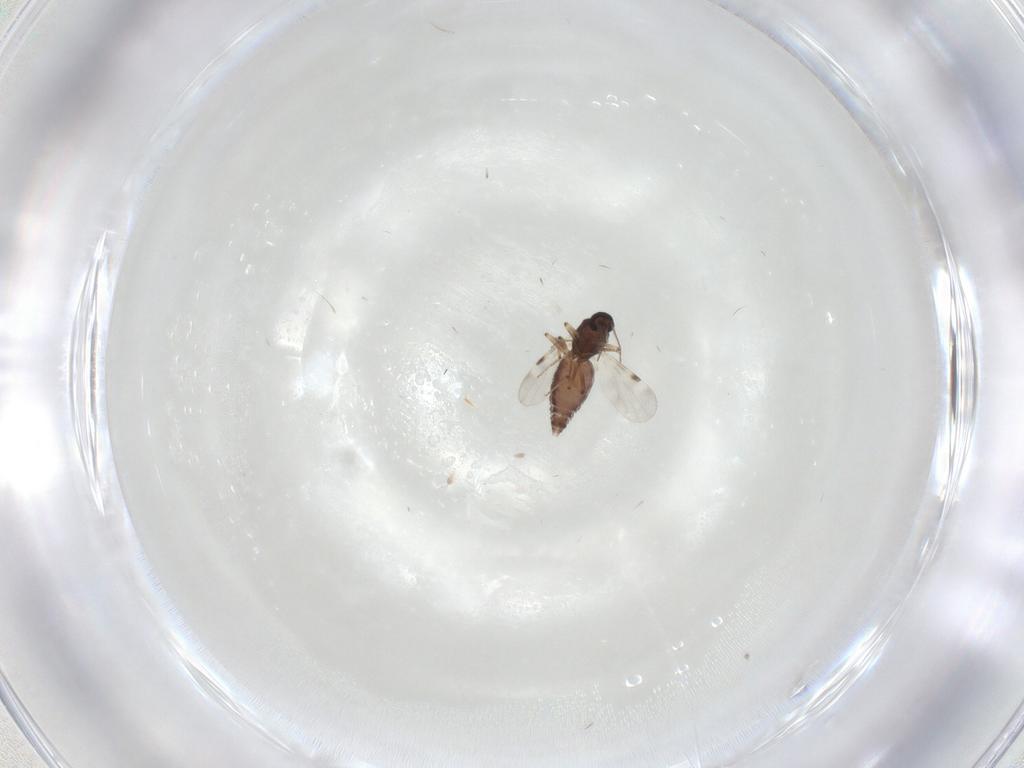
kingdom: Animalia
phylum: Arthropoda
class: Insecta
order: Diptera
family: Phoridae
